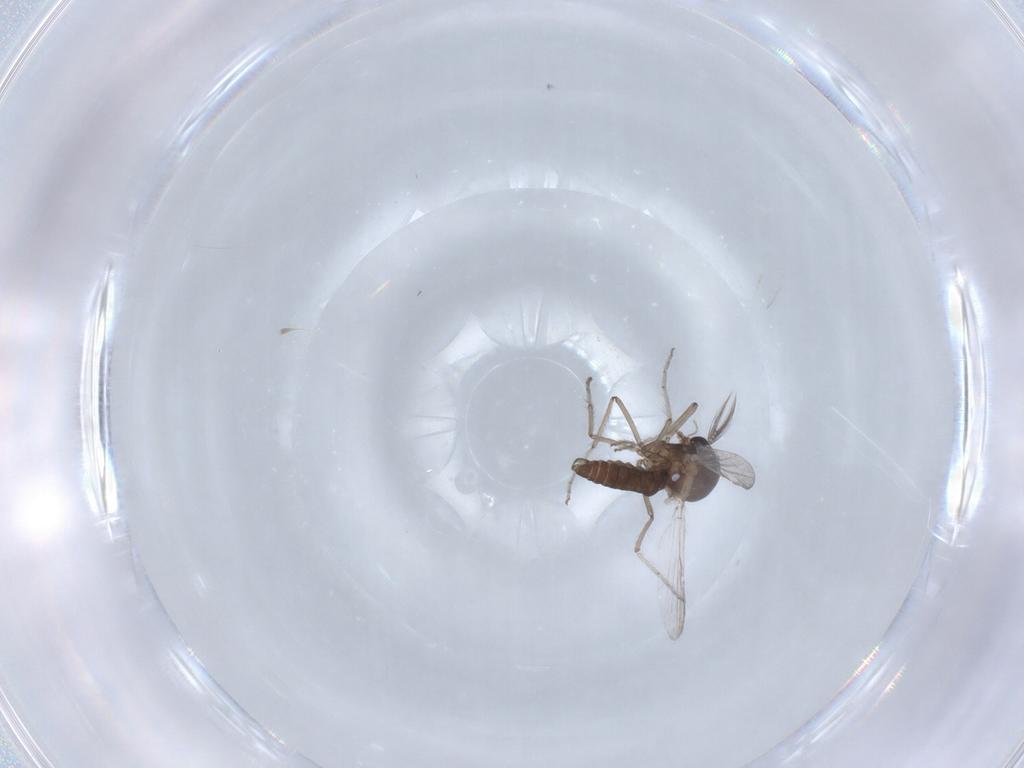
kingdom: Animalia
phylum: Arthropoda
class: Insecta
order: Diptera
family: Ceratopogonidae
